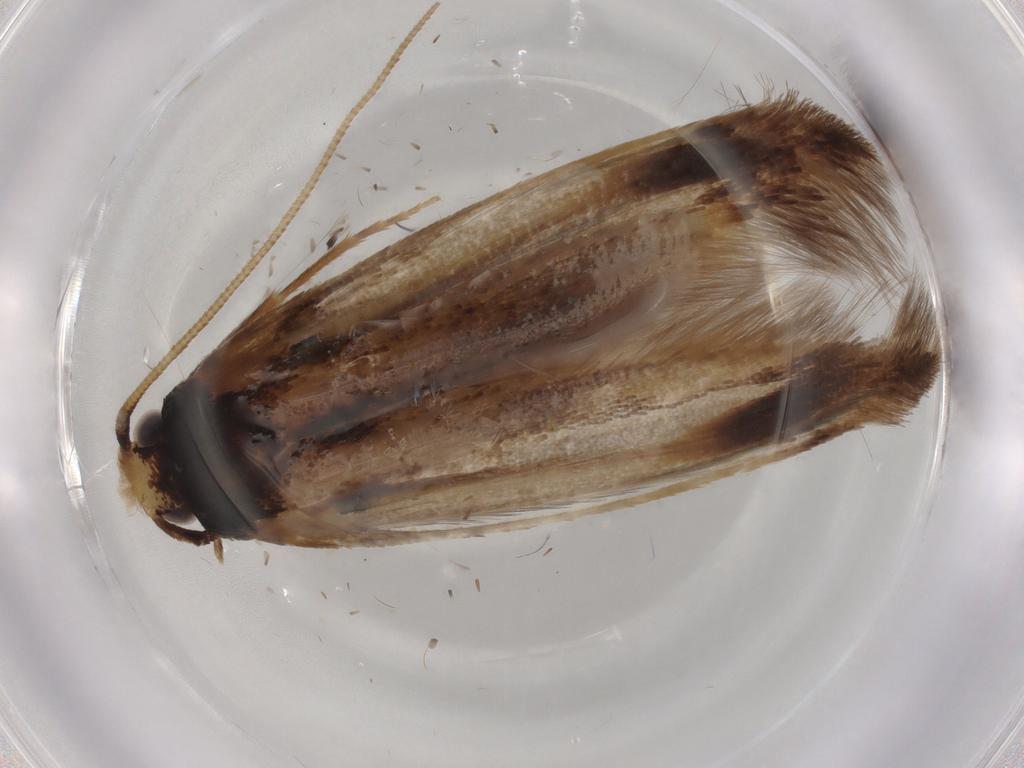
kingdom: Animalia
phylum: Arthropoda
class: Insecta
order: Lepidoptera
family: Tineidae
